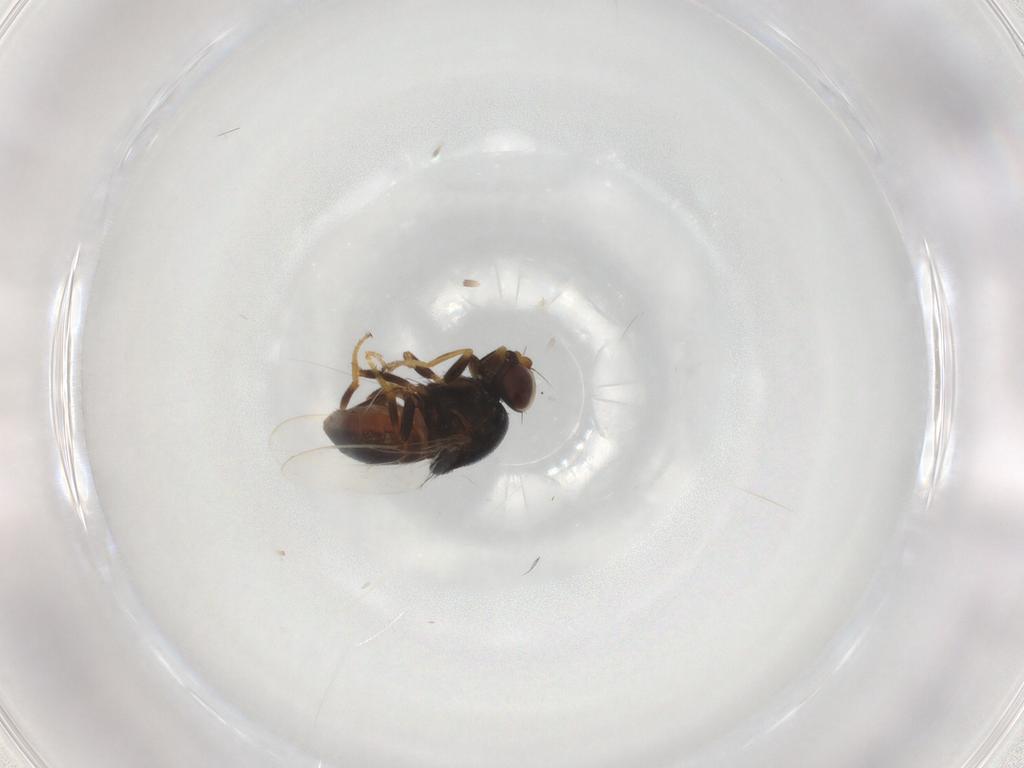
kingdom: Animalia
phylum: Arthropoda
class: Insecta
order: Diptera
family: Chloropidae
